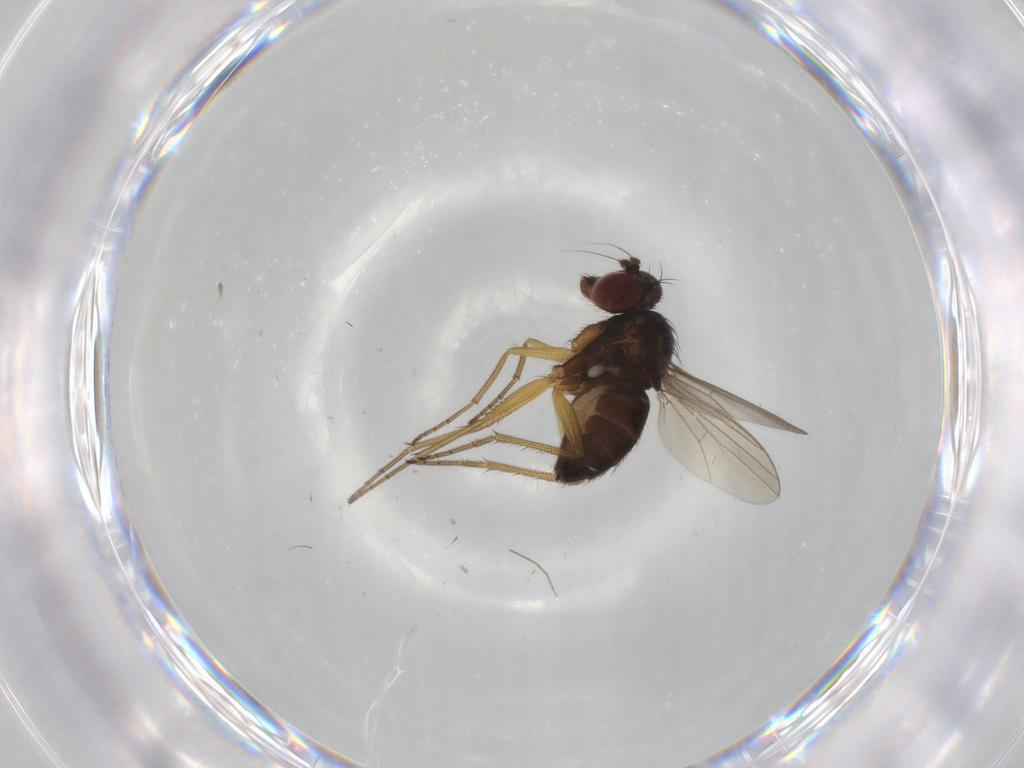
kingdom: Animalia
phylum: Arthropoda
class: Insecta
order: Diptera
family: Dolichopodidae
